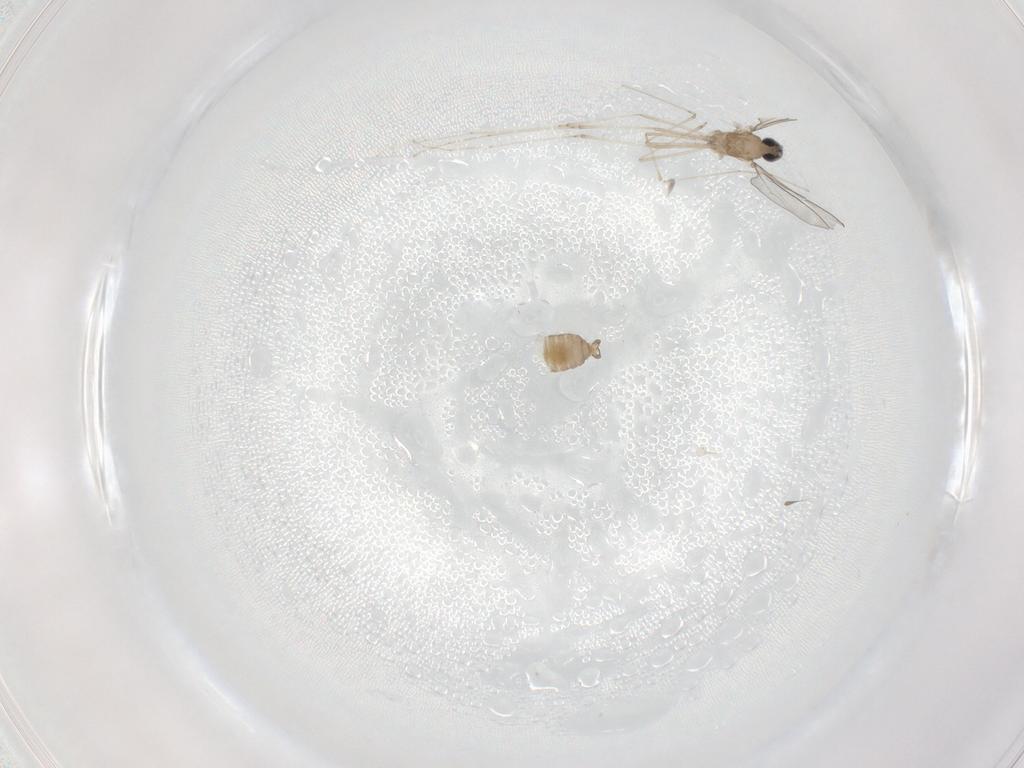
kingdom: Animalia
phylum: Arthropoda
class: Insecta
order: Diptera
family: Cecidomyiidae
